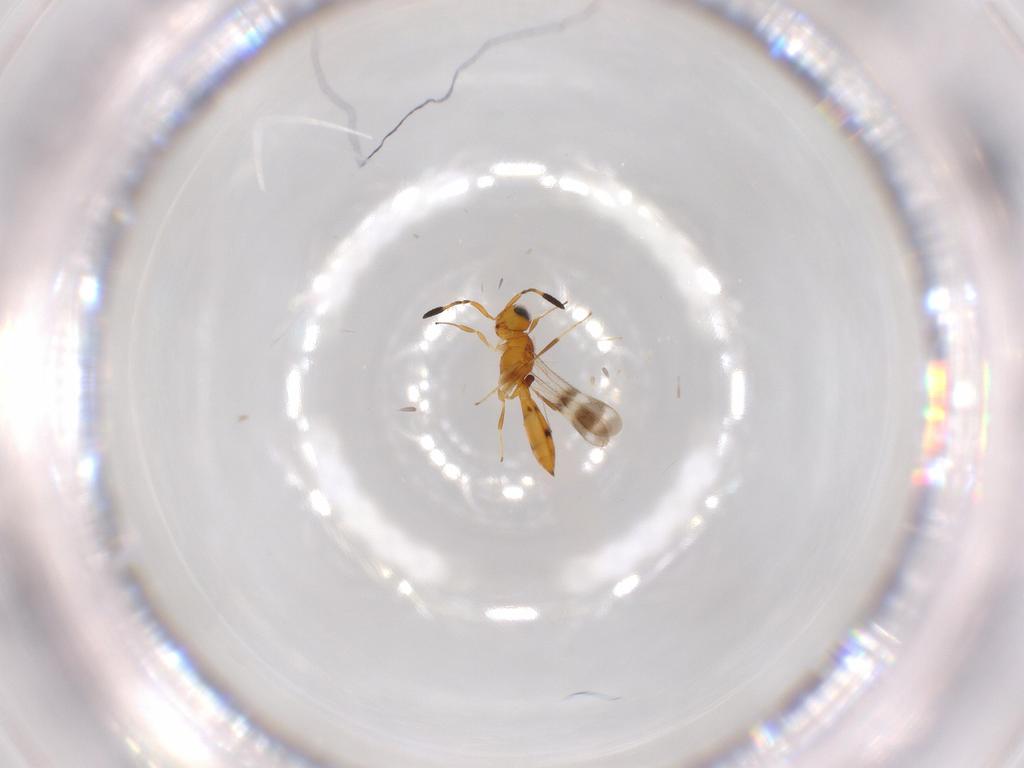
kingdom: Animalia
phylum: Arthropoda
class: Insecta
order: Hymenoptera
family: Scelionidae
